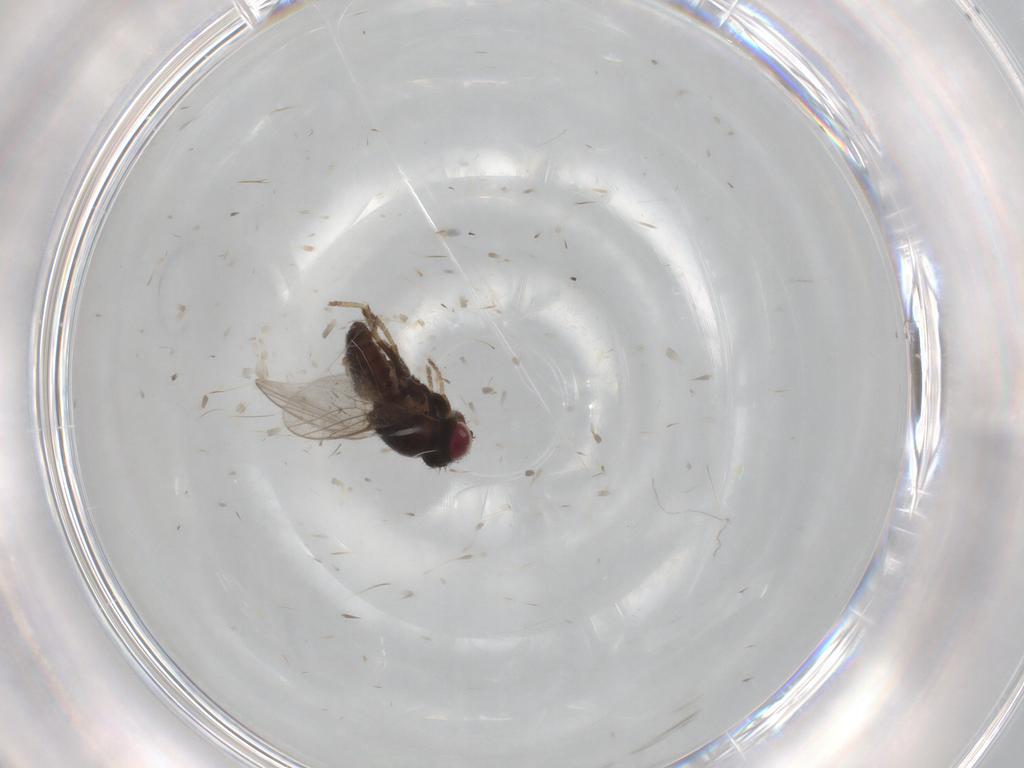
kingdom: Animalia
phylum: Arthropoda
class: Insecta
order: Diptera
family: Chloropidae
